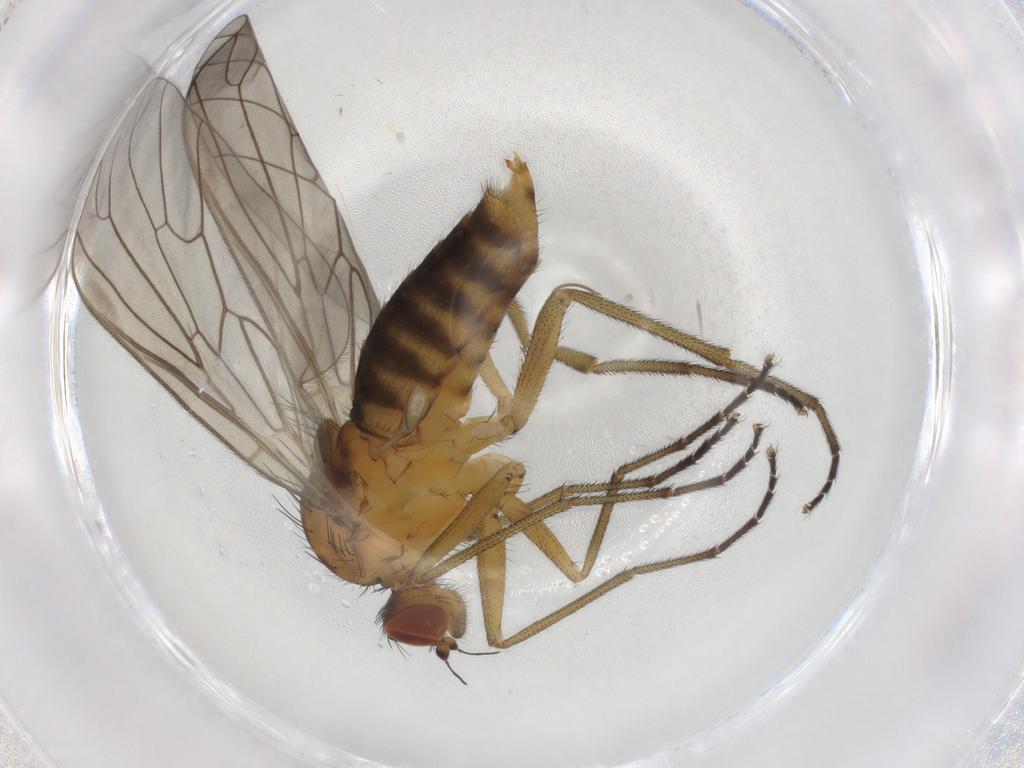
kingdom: Animalia
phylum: Arthropoda
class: Insecta
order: Diptera
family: Brachystomatidae
